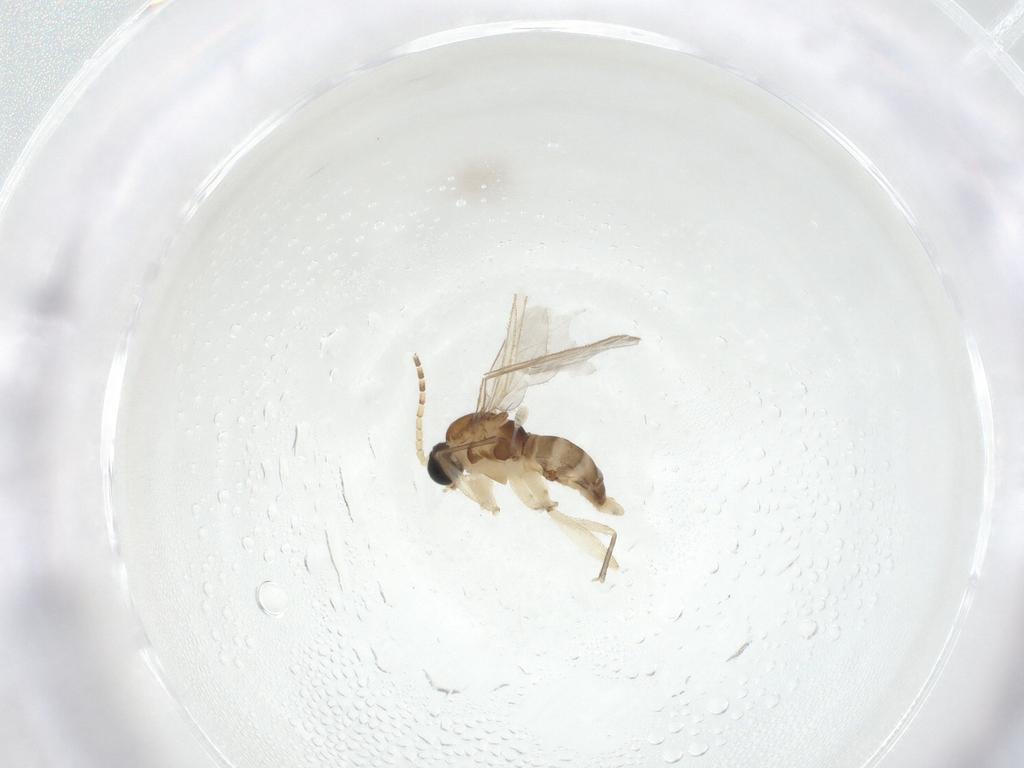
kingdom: Animalia
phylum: Arthropoda
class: Insecta
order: Diptera
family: Sciaridae
